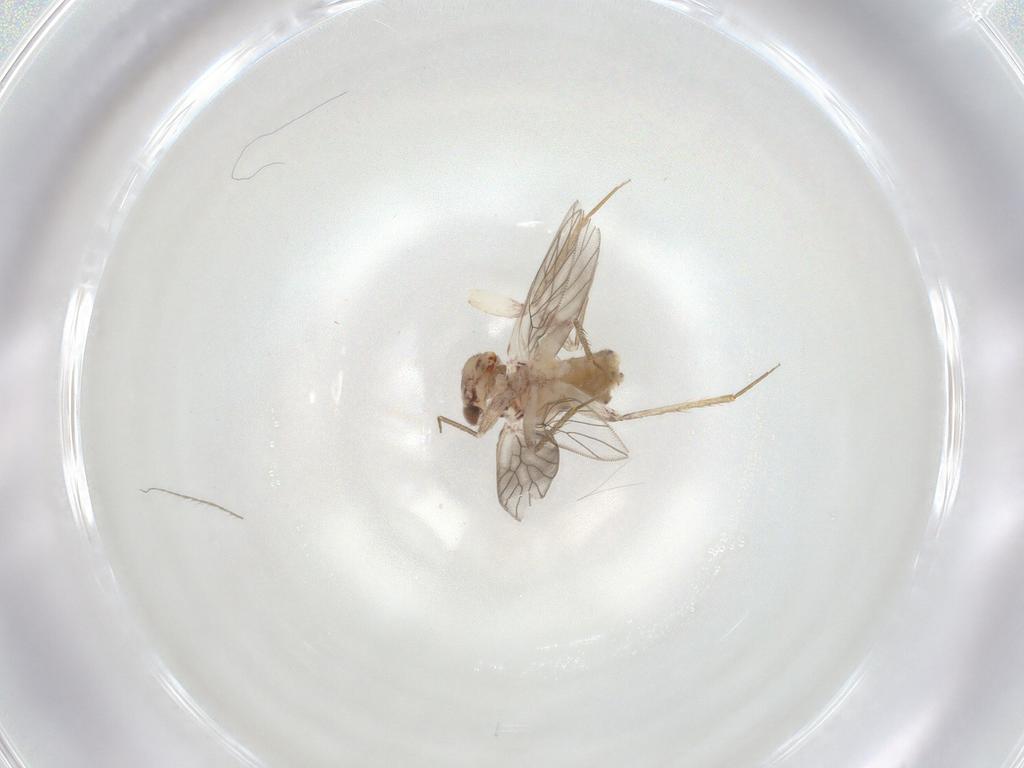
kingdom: Animalia
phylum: Arthropoda
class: Insecta
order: Psocodea
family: Lepidopsocidae
